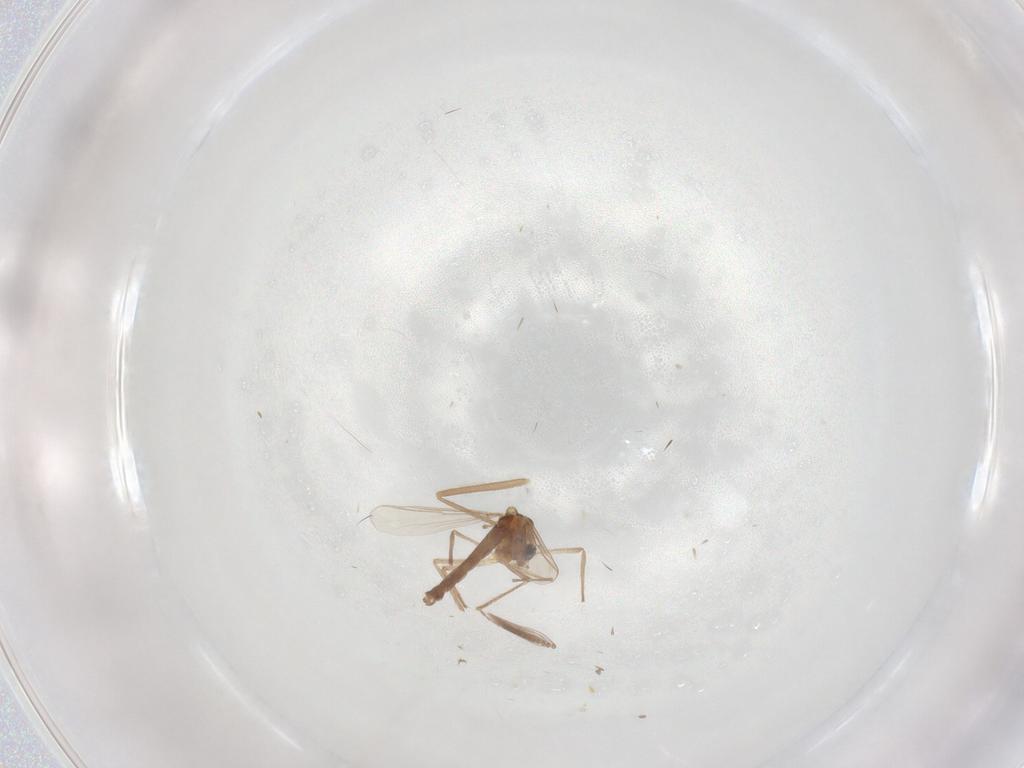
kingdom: Animalia
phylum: Arthropoda
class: Insecta
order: Diptera
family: Chironomidae
